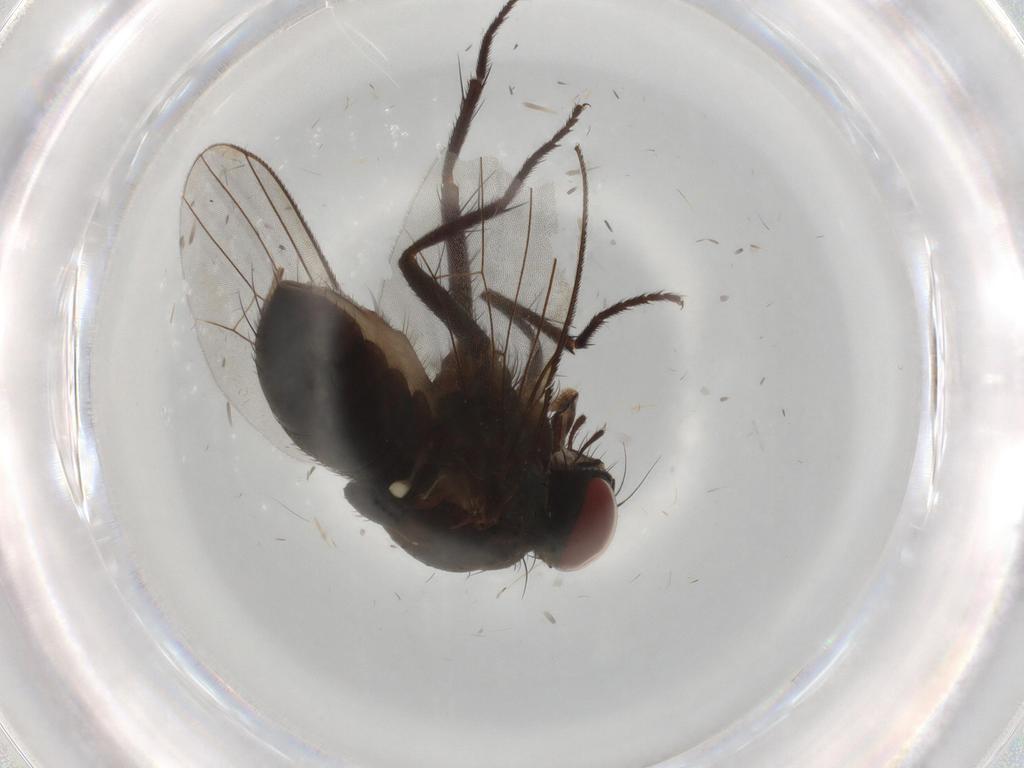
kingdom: Animalia
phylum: Arthropoda
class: Insecta
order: Diptera
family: Muscidae
